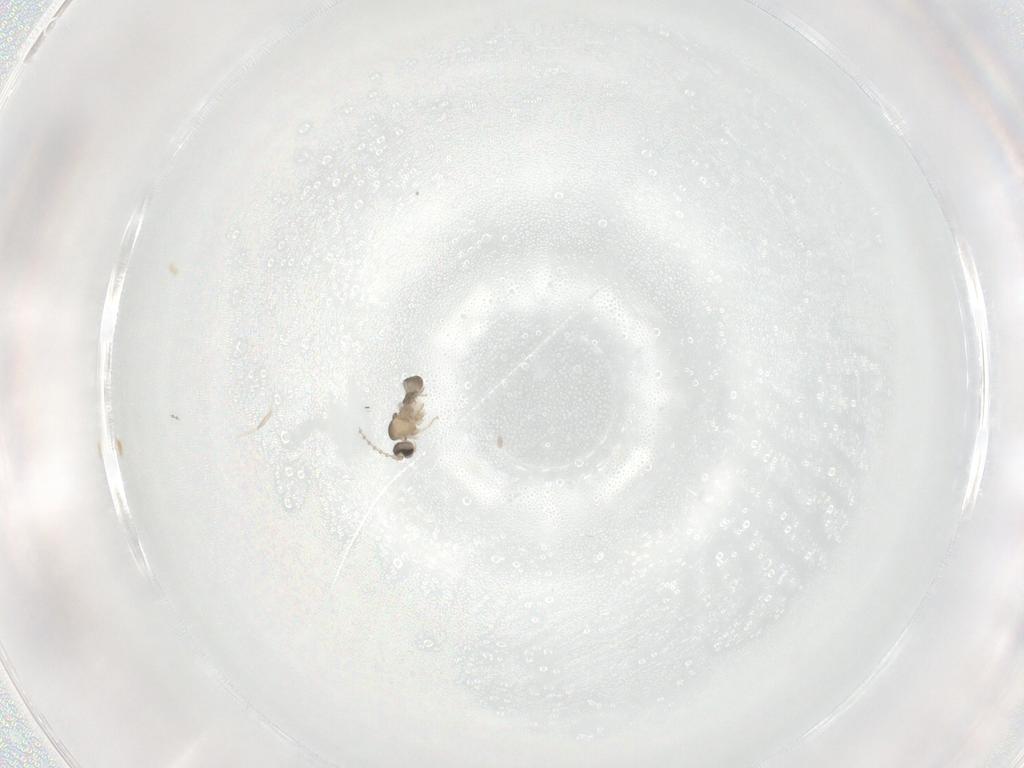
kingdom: Animalia
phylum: Arthropoda
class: Insecta
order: Diptera
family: Cecidomyiidae
